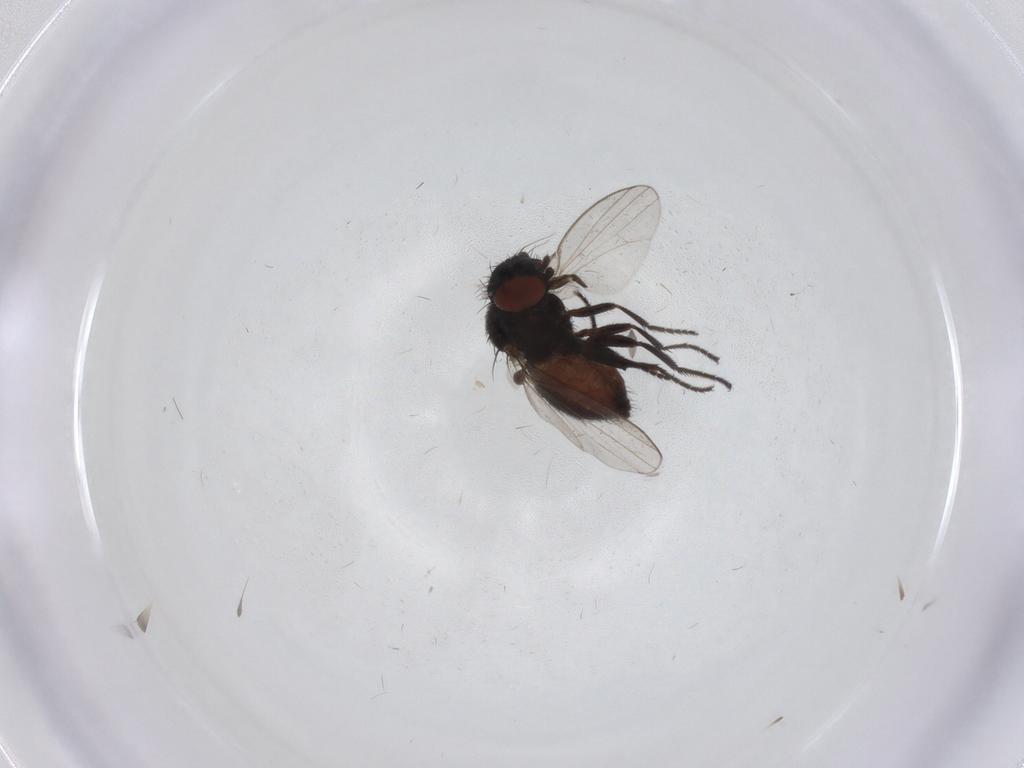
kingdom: Animalia
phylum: Arthropoda
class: Insecta
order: Diptera
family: Milichiidae
